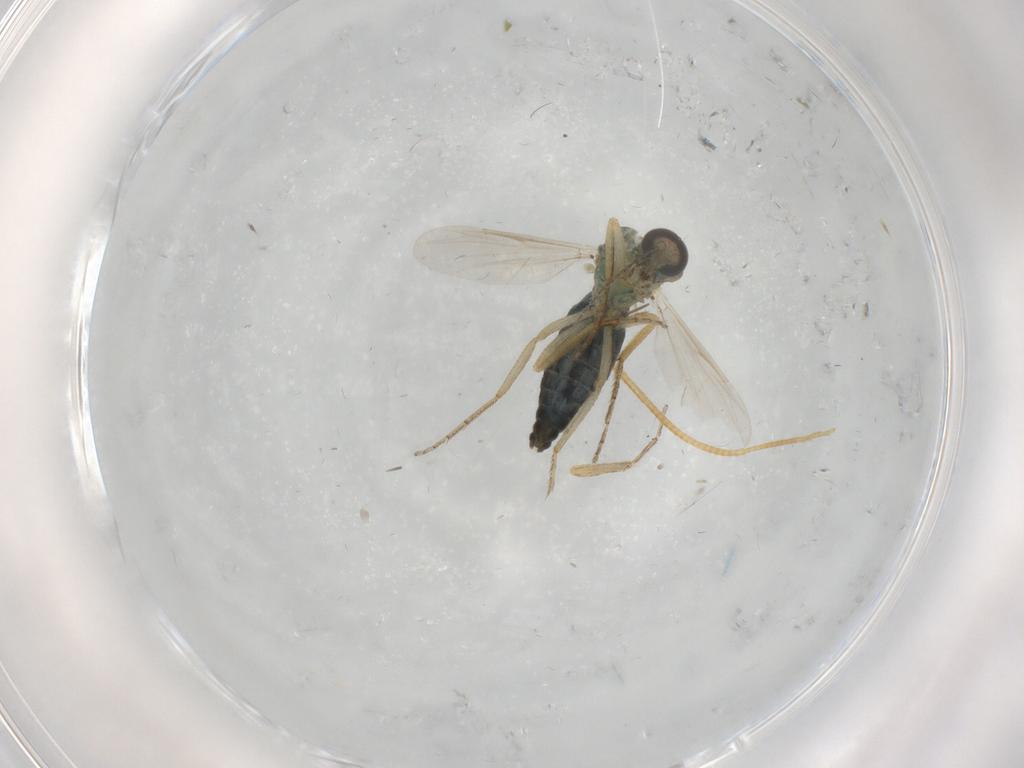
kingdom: Animalia
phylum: Arthropoda
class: Insecta
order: Diptera
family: Ceratopogonidae
